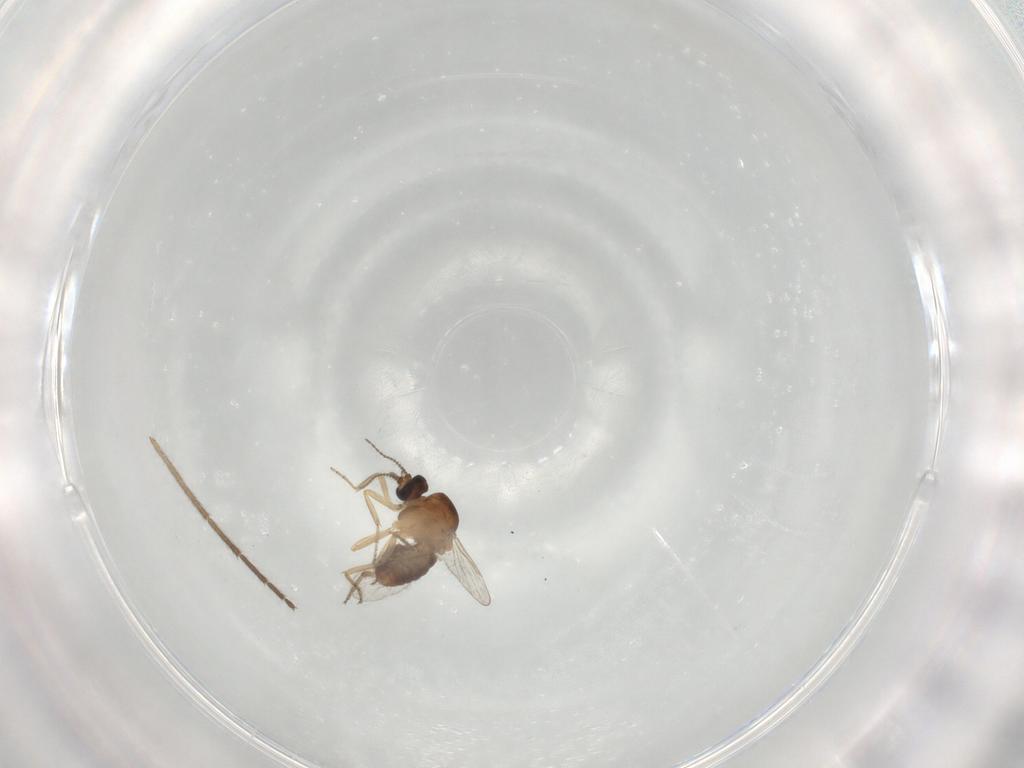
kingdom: Animalia
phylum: Arthropoda
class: Insecta
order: Diptera
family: Ceratopogonidae
